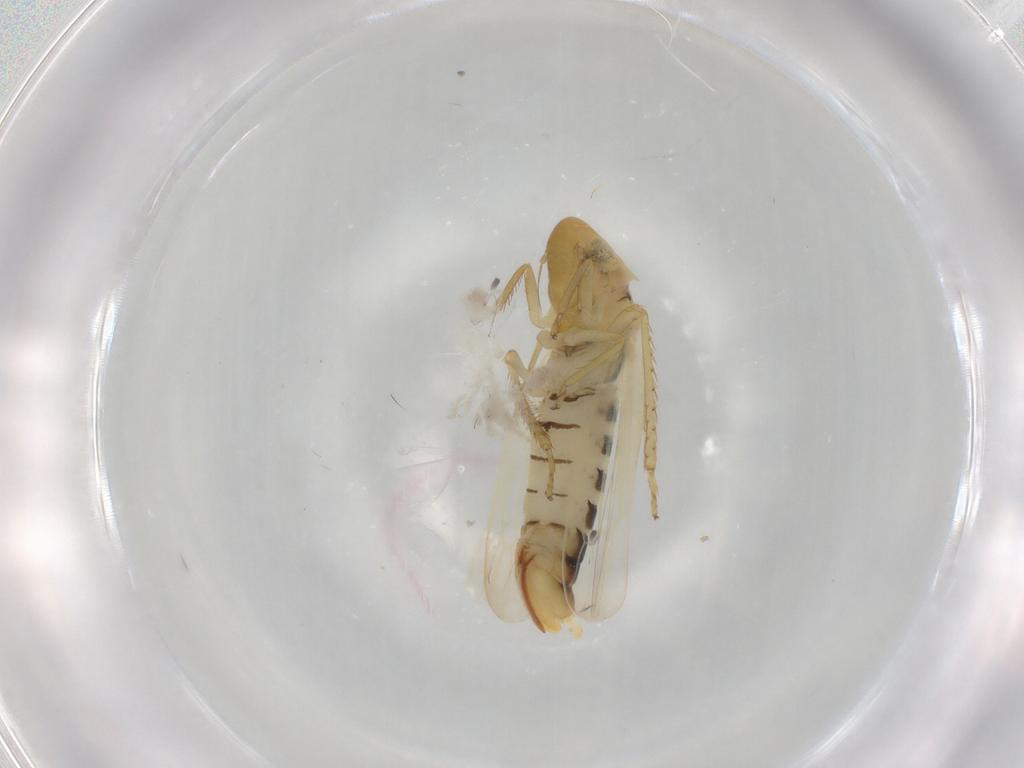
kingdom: Animalia
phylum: Arthropoda
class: Insecta
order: Hemiptera
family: Cicadellidae
